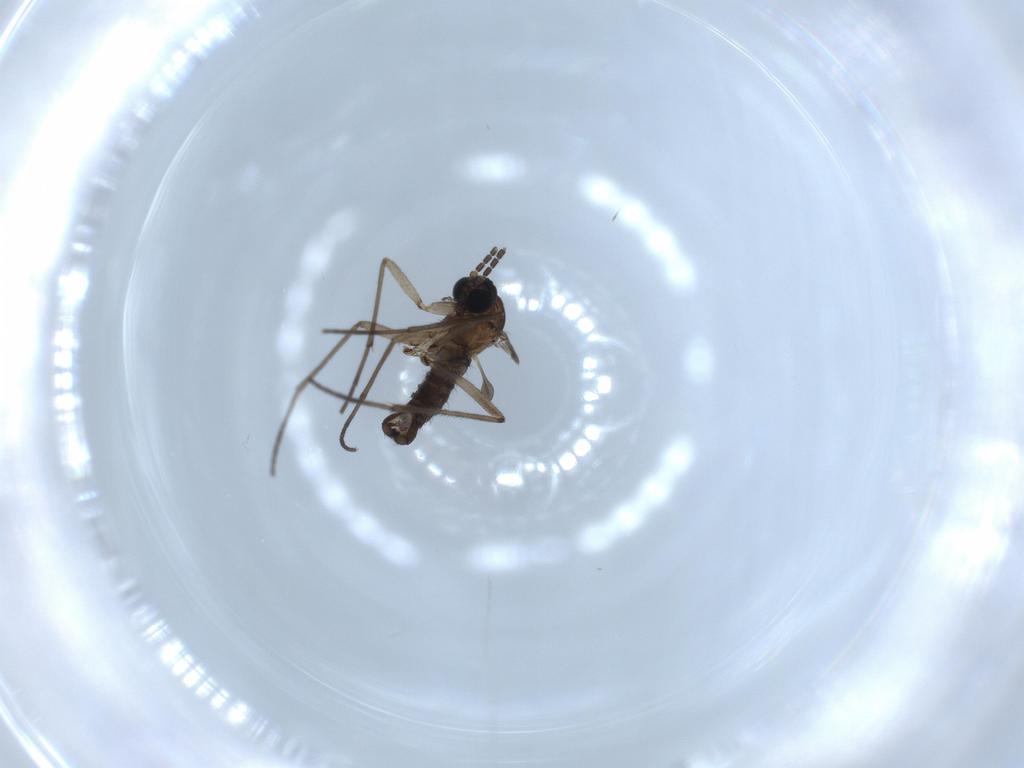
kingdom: Animalia
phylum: Arthropoda
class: Insecta
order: Diptera
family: Sciaridae
